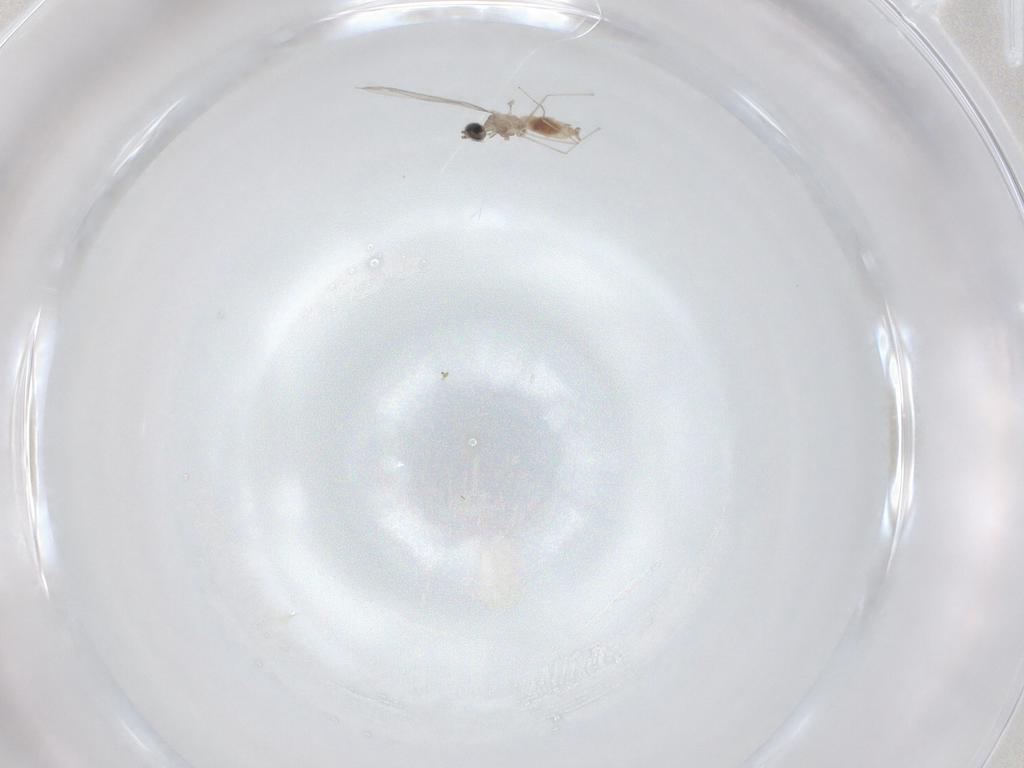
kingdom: Animalia
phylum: Arthropoda
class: Insecta
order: Diptera
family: Cecidomyiidae
